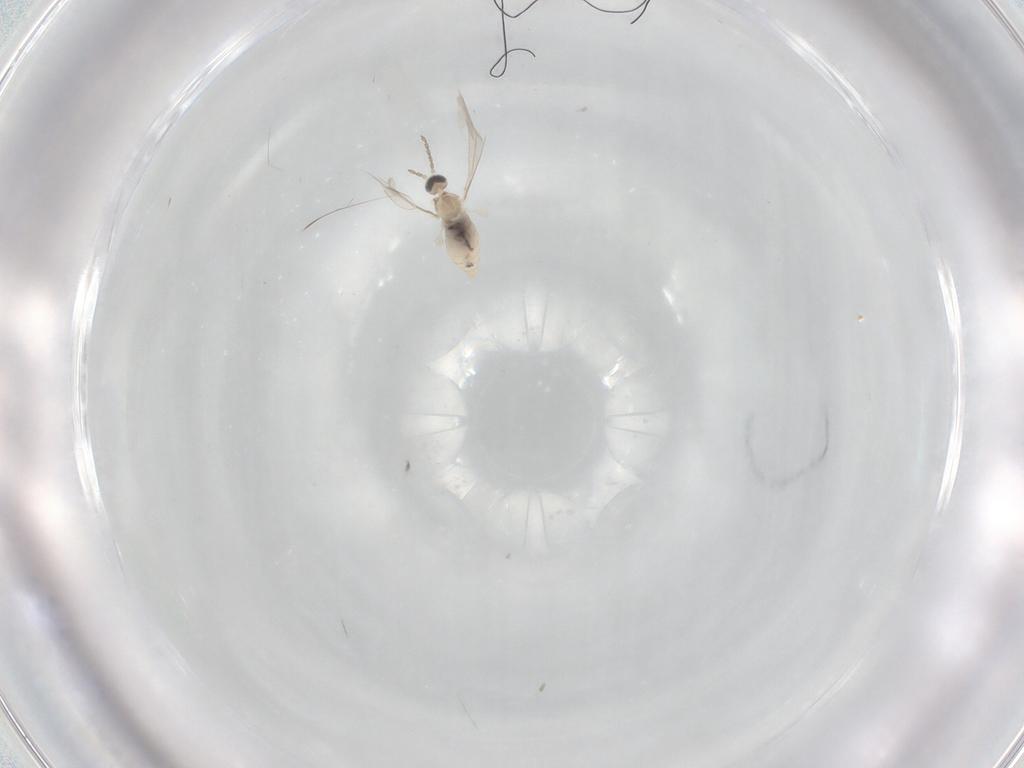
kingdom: Animalia
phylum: Arthropoda
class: Insecta
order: Diptera
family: Cecidomyiidae
